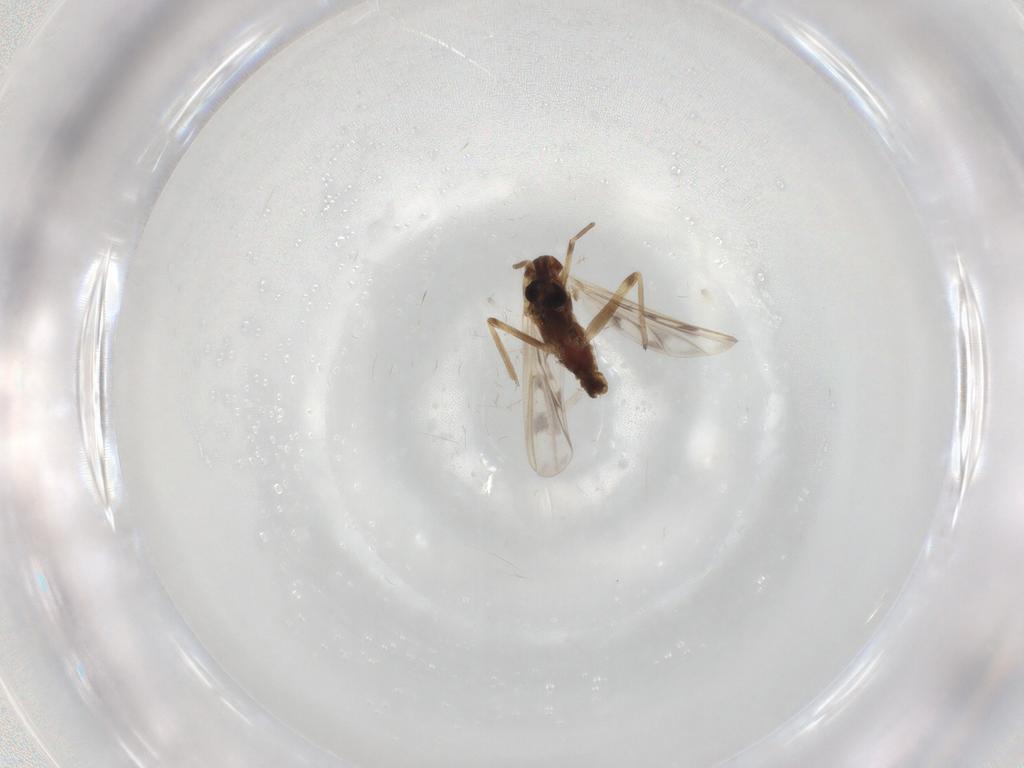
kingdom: Animalia
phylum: Arthropoda
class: Insecta
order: Diptera
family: Chironomidae
